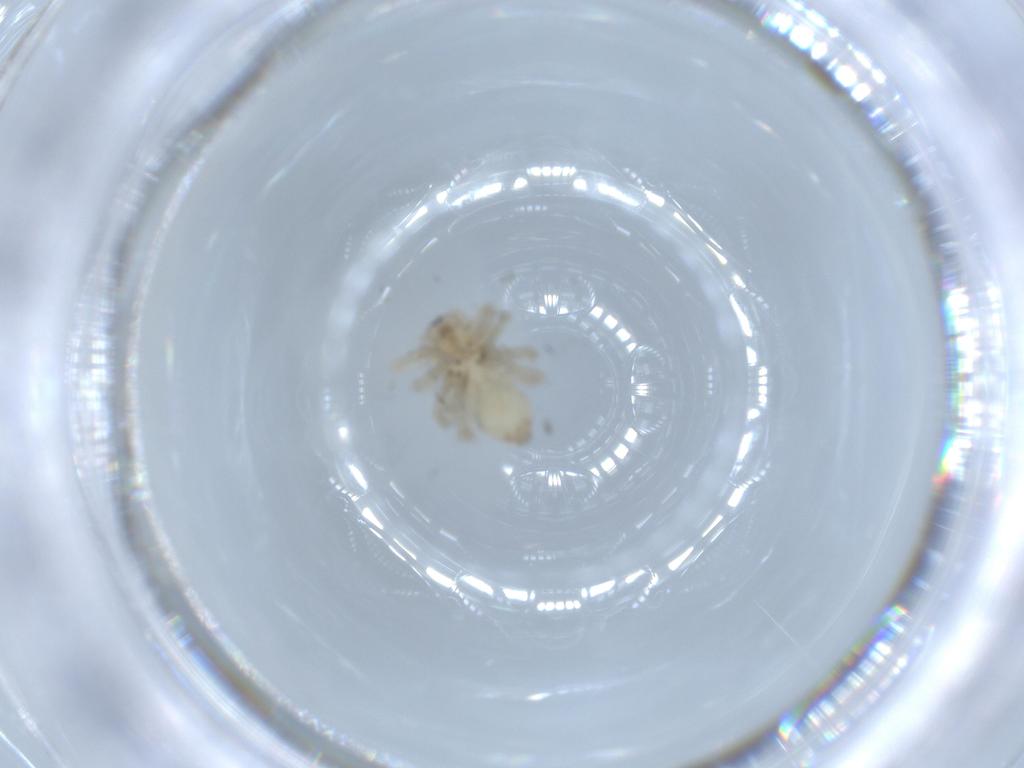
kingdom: Animalia
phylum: Arthropoda
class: Arachnida
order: Araneae
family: Clubionidae
